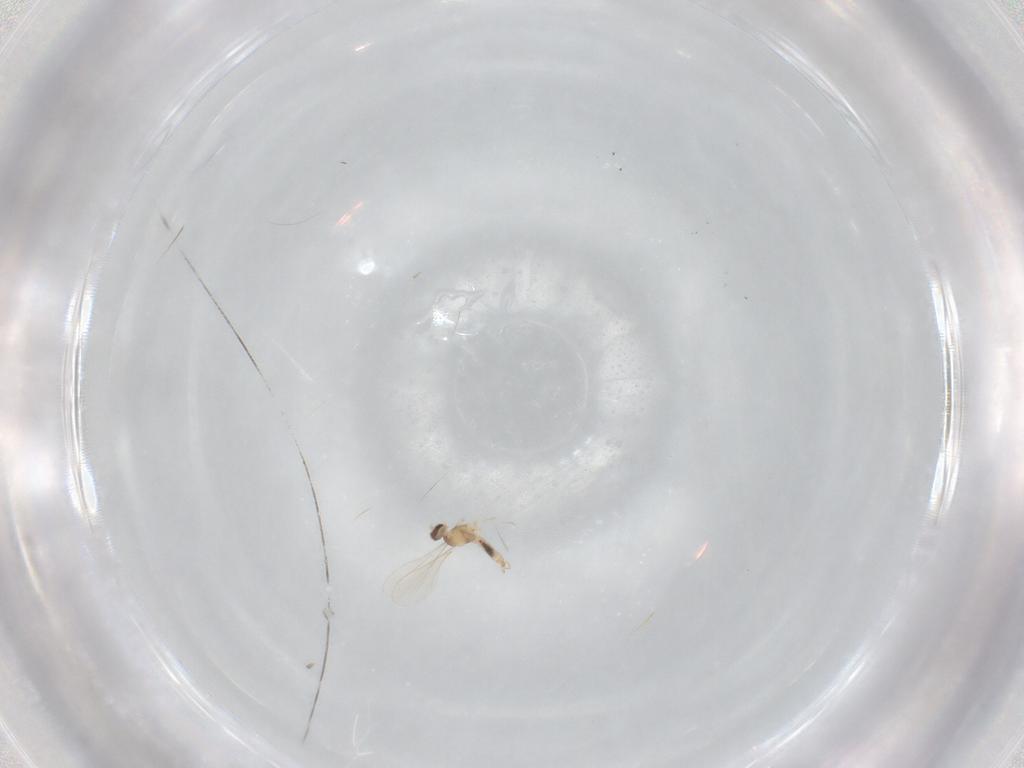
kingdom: Animalia
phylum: Arthropoda
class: Insecta
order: Diptera
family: Cecidomyiidae
